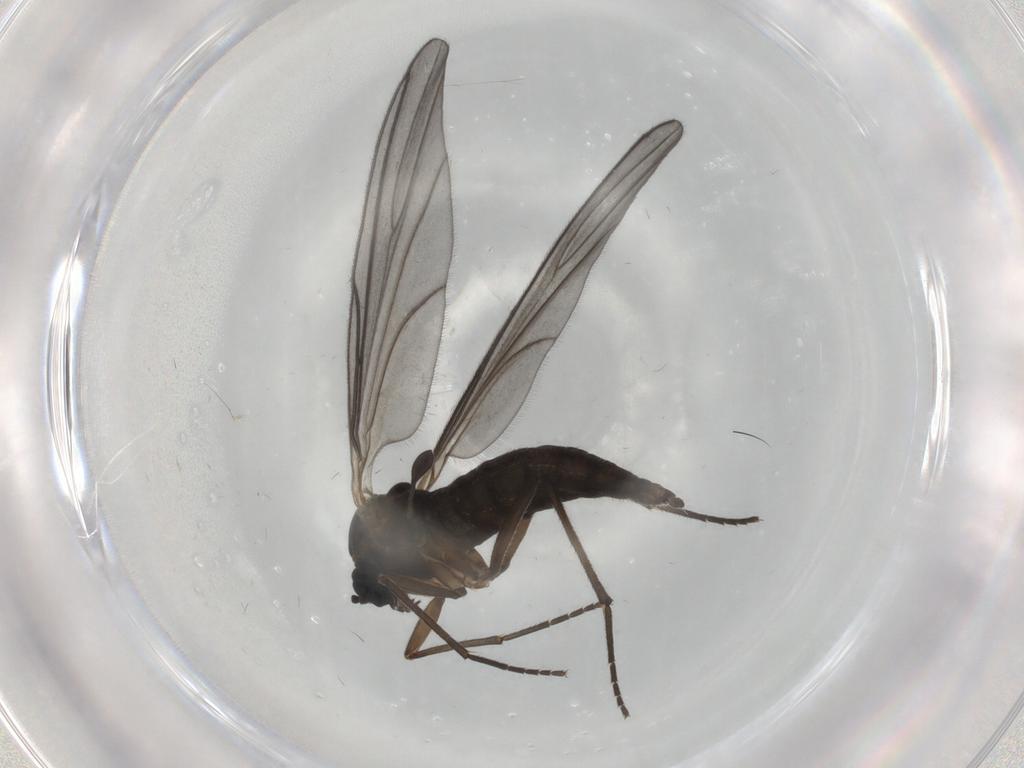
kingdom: Animalia
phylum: Arthropoda
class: Insecta
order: Diptera
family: Sciaridae
